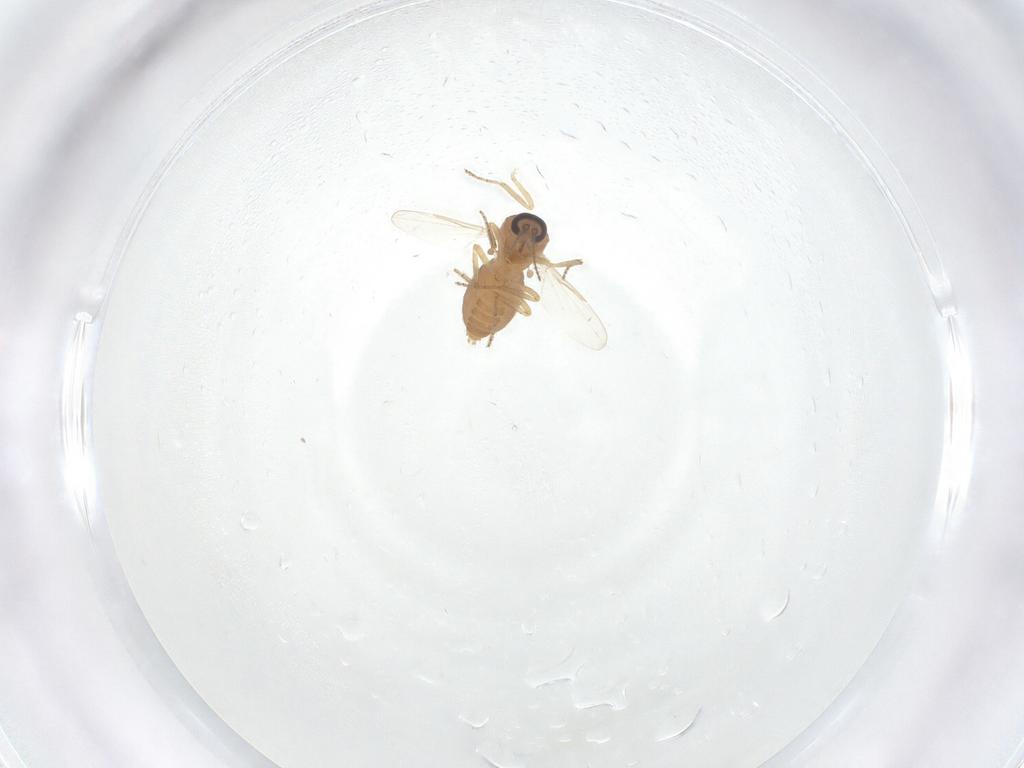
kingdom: Animalia
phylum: Arthropoda
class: Insecta
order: Diptera
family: Ceratopogonidae
